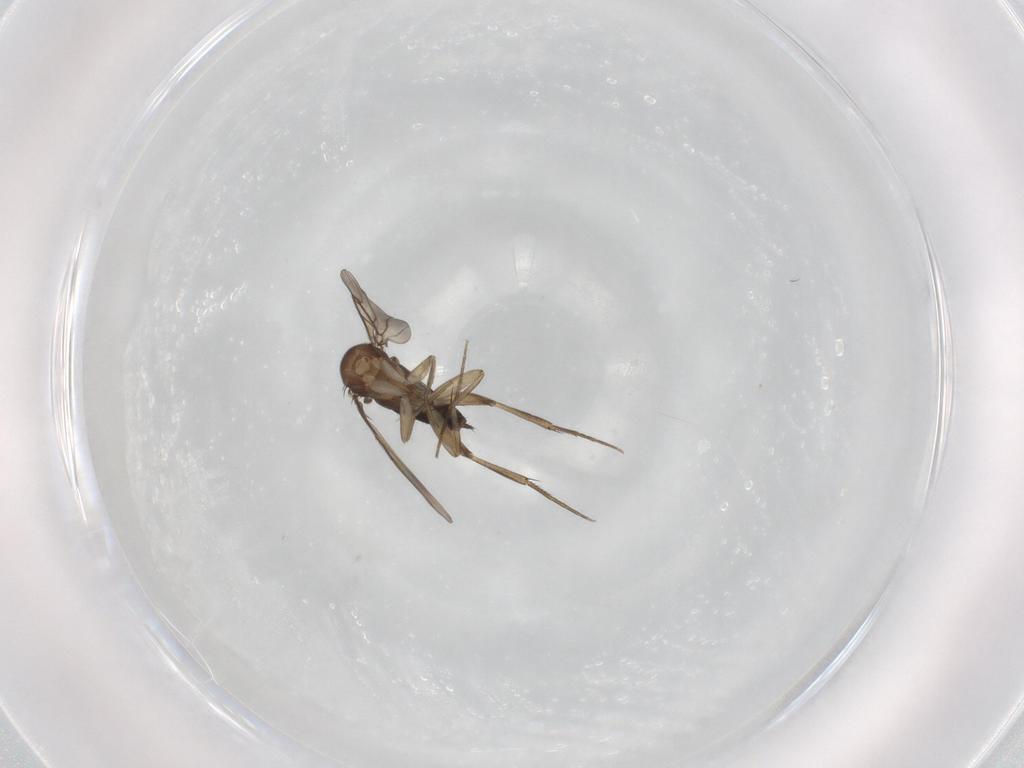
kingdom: Animalia
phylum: Arthropoda
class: Insecta
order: Diptera
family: Phoridae
